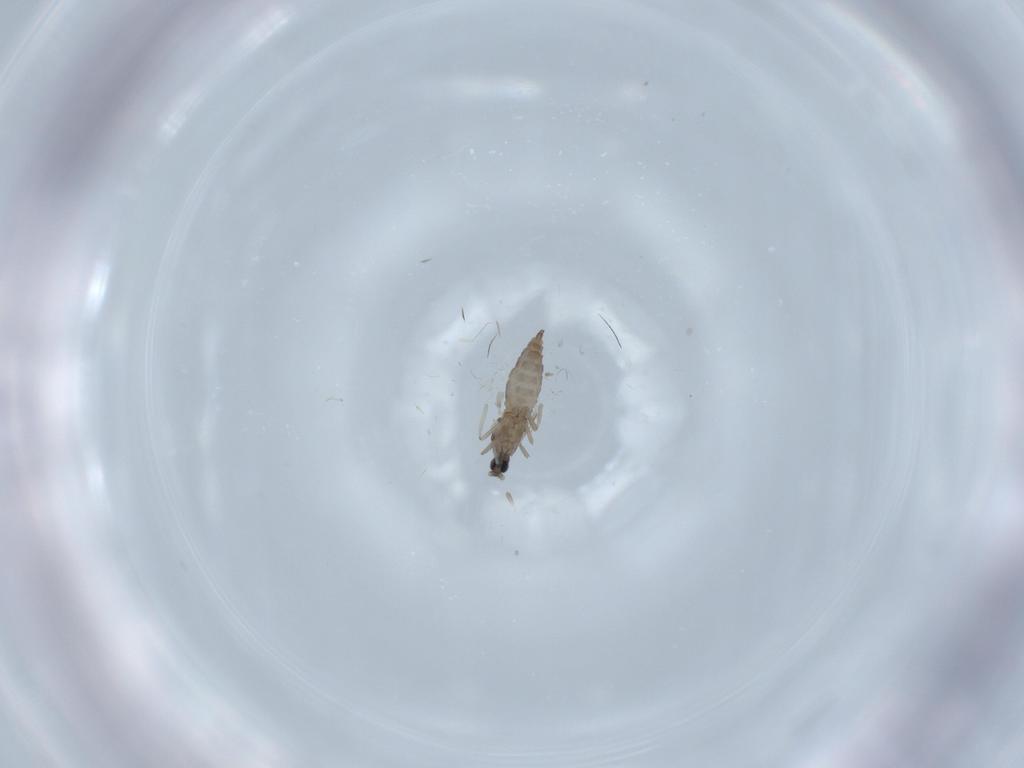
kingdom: Animalia
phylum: Arthropoda
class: Insecta
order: Diptera
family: Cecidomyiidae
